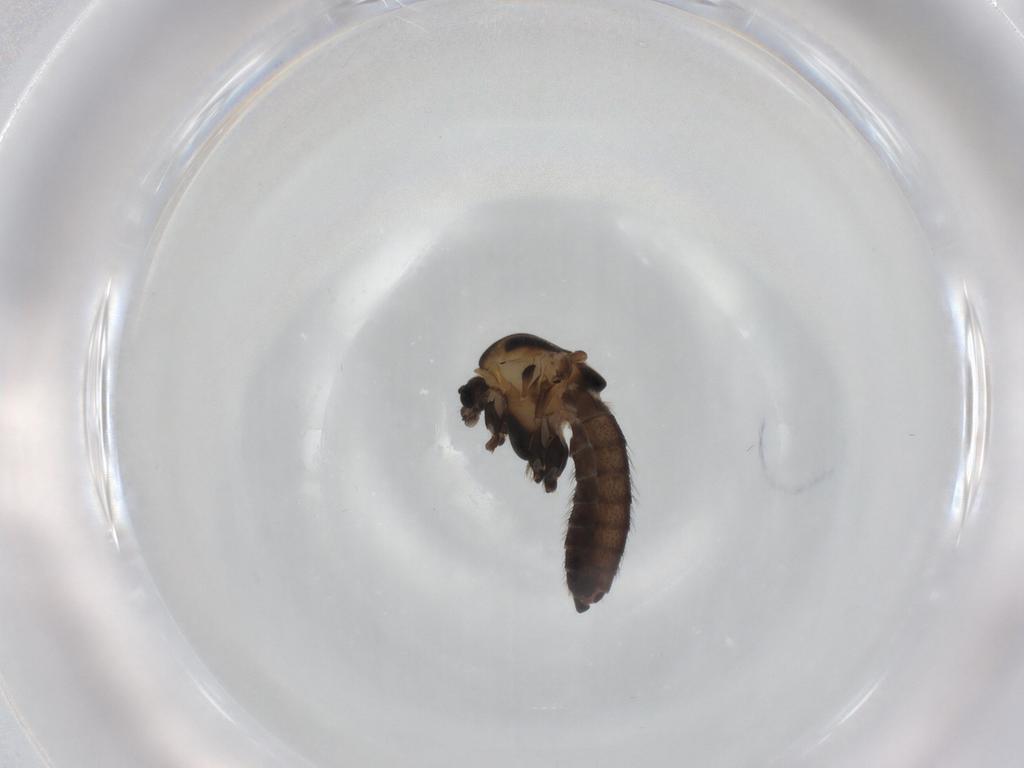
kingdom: Animalia
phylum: Arthropoda
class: Insecta
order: Diptera
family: Chironomidae
